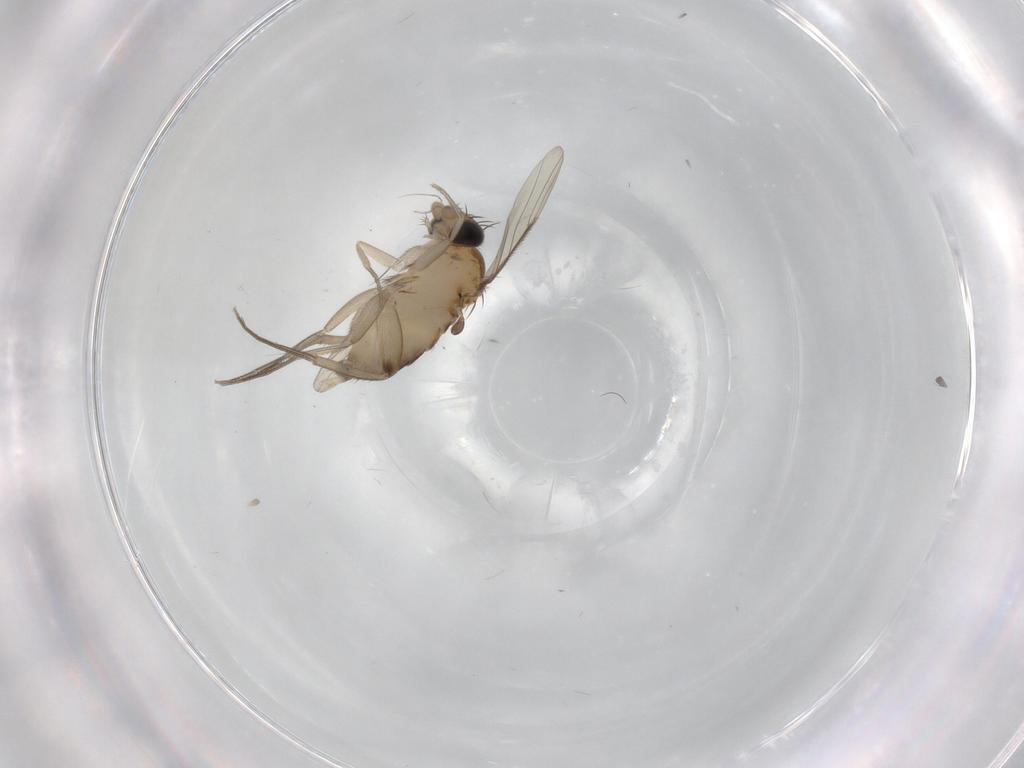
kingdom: Animalia
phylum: Arthropoda
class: Insecta
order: Diptera
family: Phoridae
